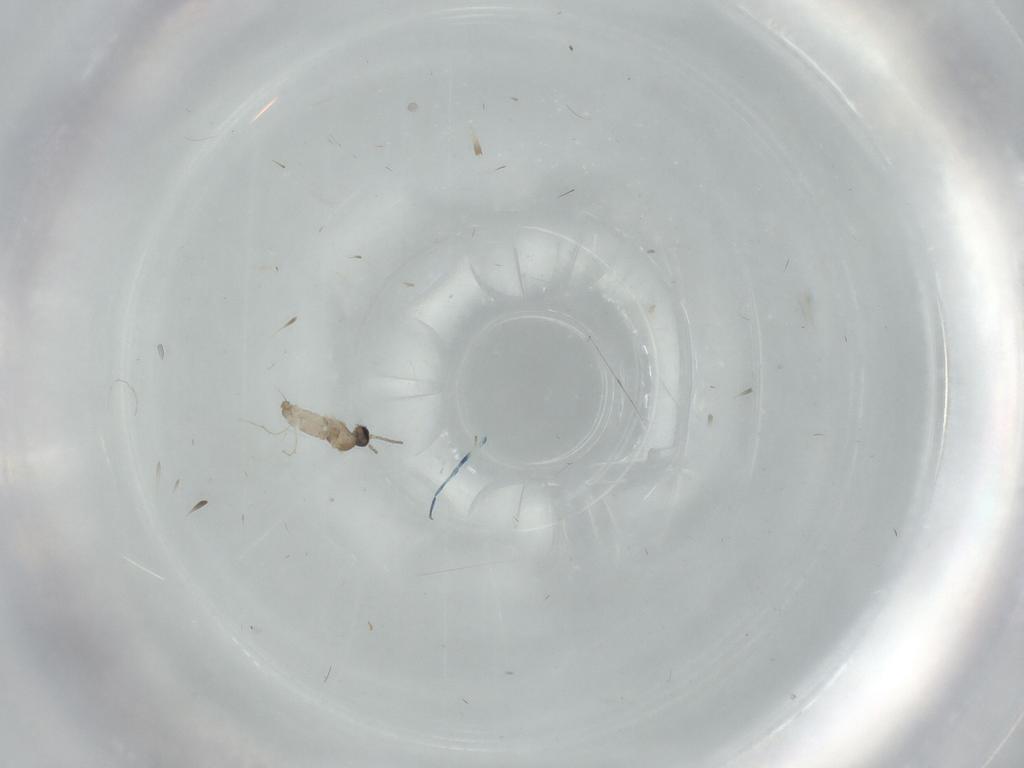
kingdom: Animalia
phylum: Arthropoda
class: Insecta
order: Diptera
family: Cecidomyiidae
